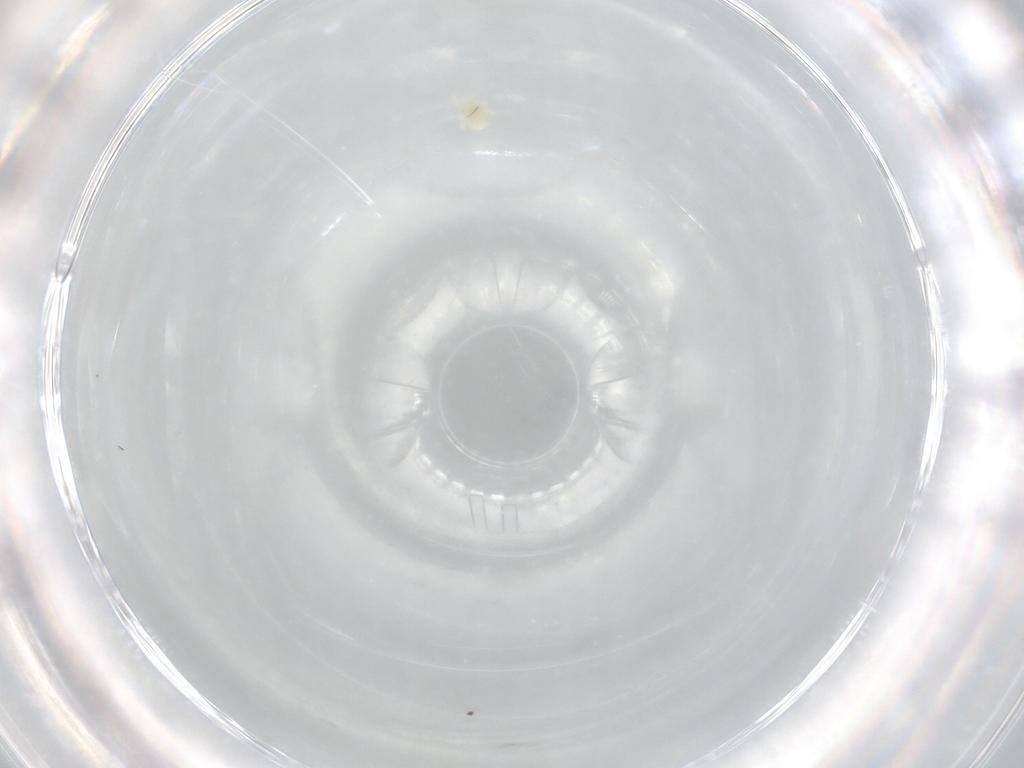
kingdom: Animalia
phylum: Arthropoda
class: Arachnida
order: Trombidiformes
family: Eupodidae
